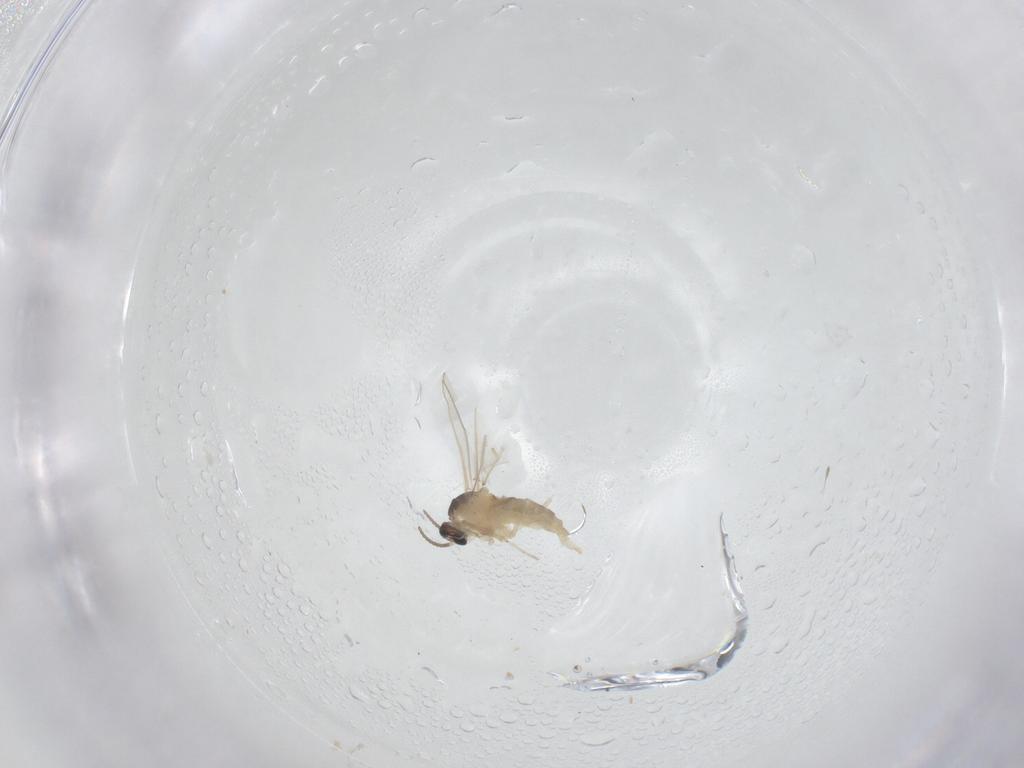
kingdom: Animalia
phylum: Arthropoda
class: Insecta
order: Diptera
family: Cecidomyiidae
